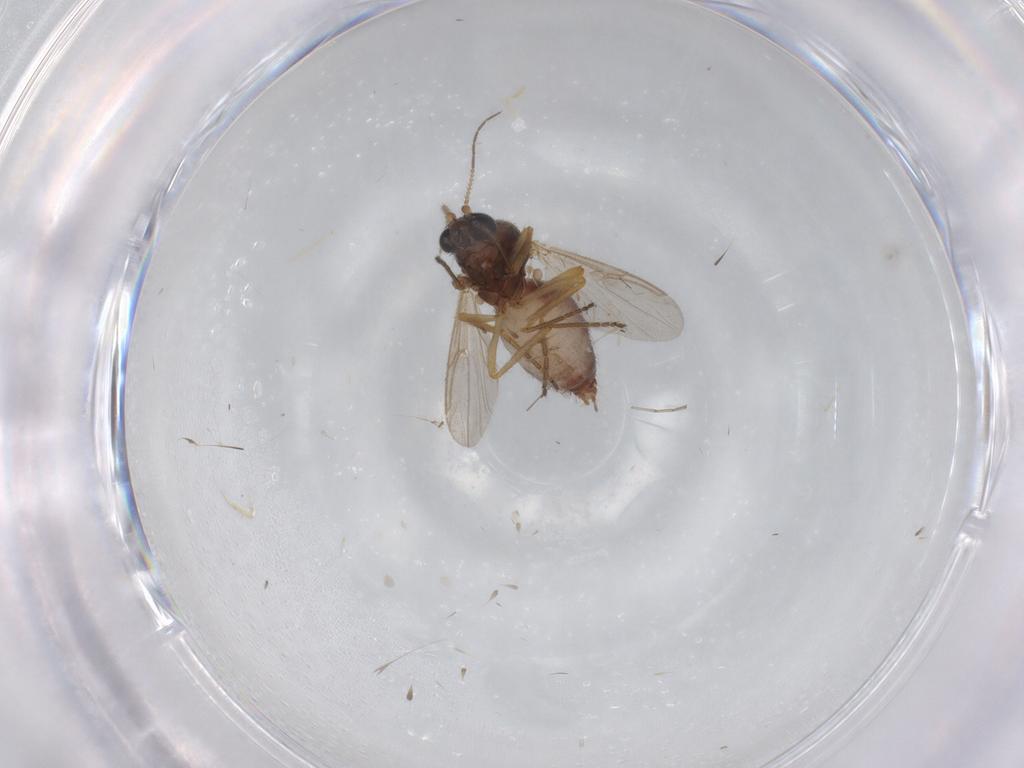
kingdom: Animalia
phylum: Arthropoda
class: Insecta
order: Diptera
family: Ceratopogonidae
